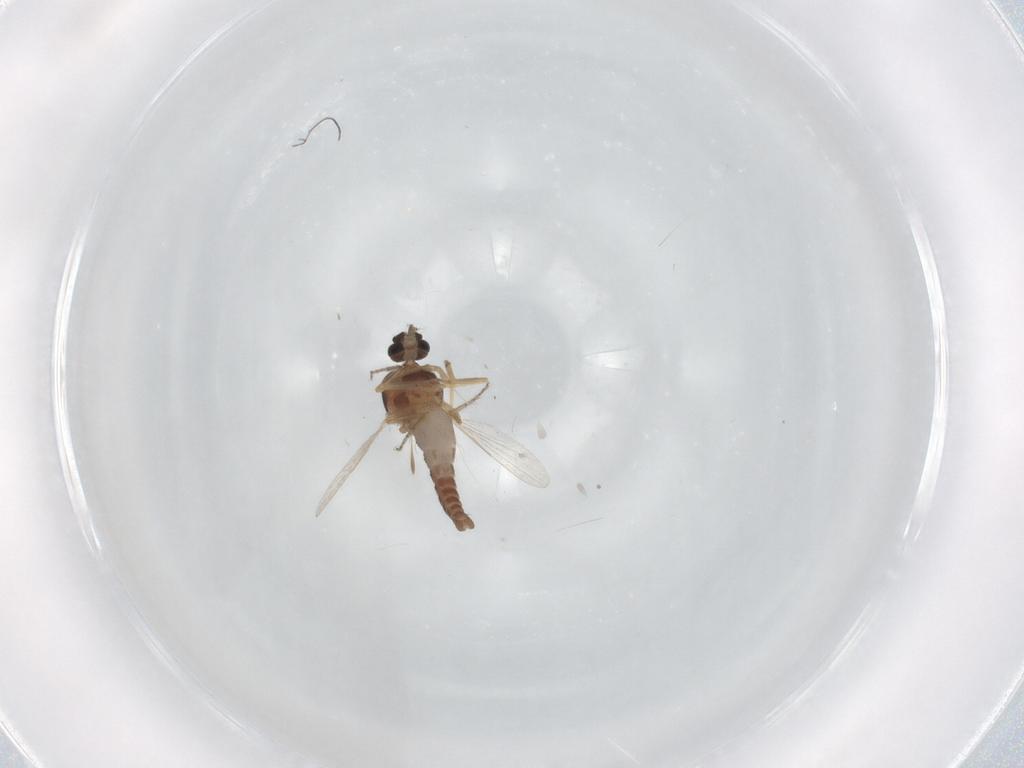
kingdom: Animalia
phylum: Arthropoda
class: Insecta
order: Diptera
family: Ceratopogonidae
